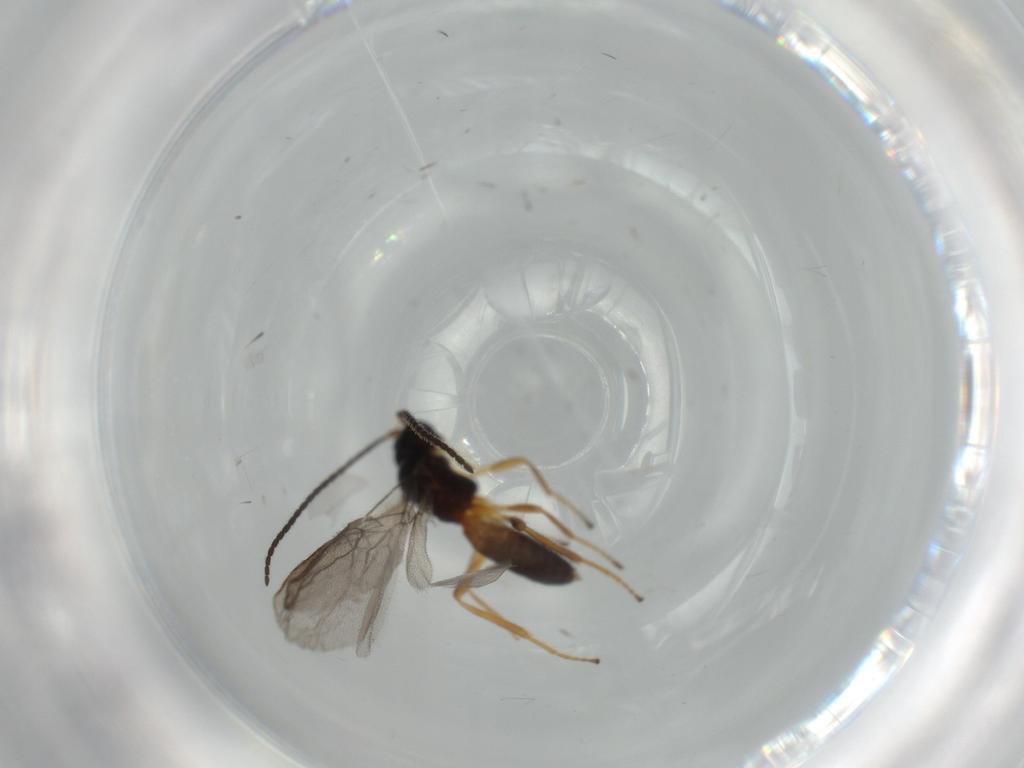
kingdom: Animalia
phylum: Arthropoda
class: Insecta
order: Hymenoptera
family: Braconidae
